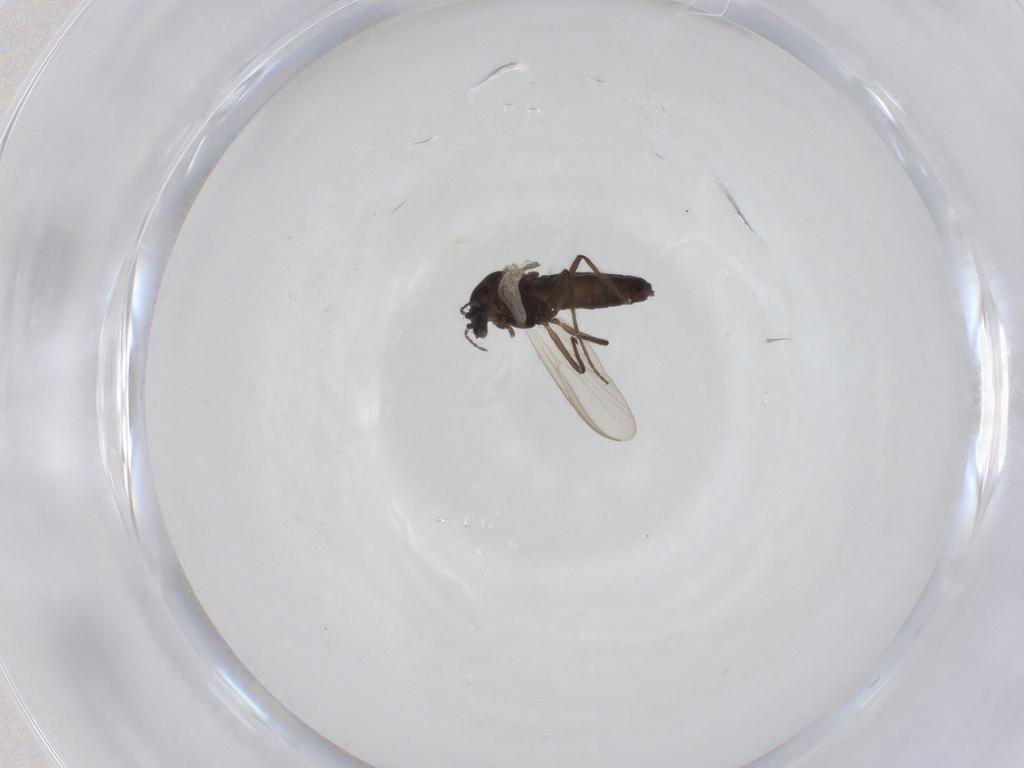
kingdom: Animalia
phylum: Arthropoda
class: Insecta
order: Diptera
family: Chironomidae
